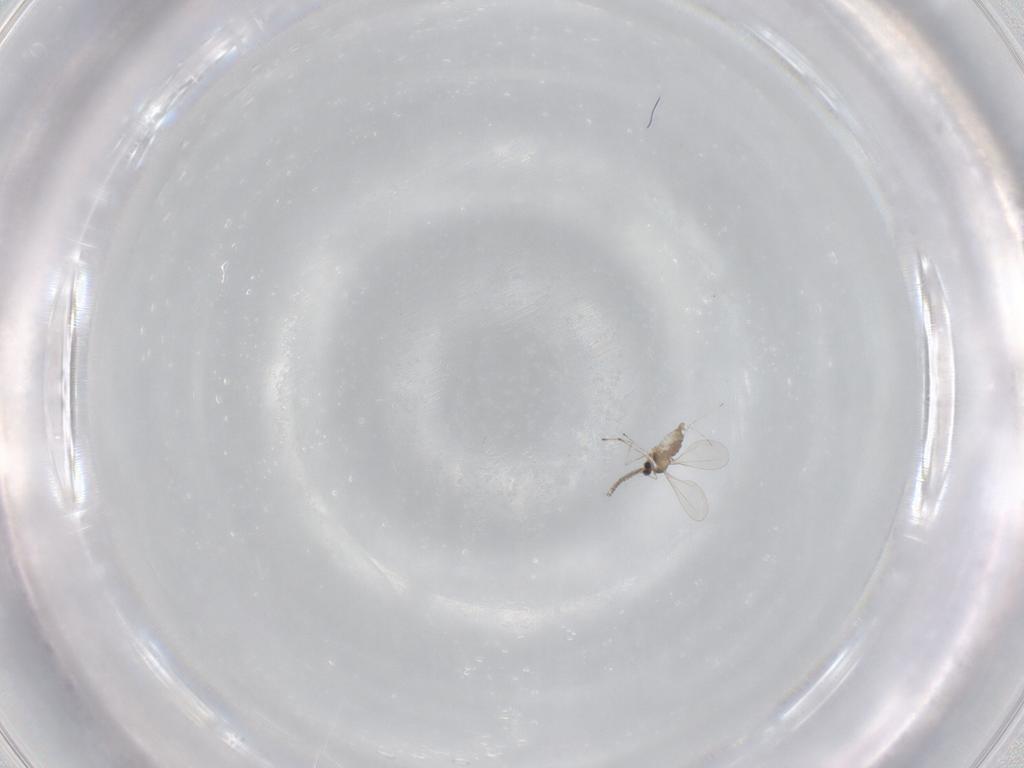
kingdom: Animalia
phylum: Arthropoda
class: Insecta
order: Diptera
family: Cecidomyiidae
